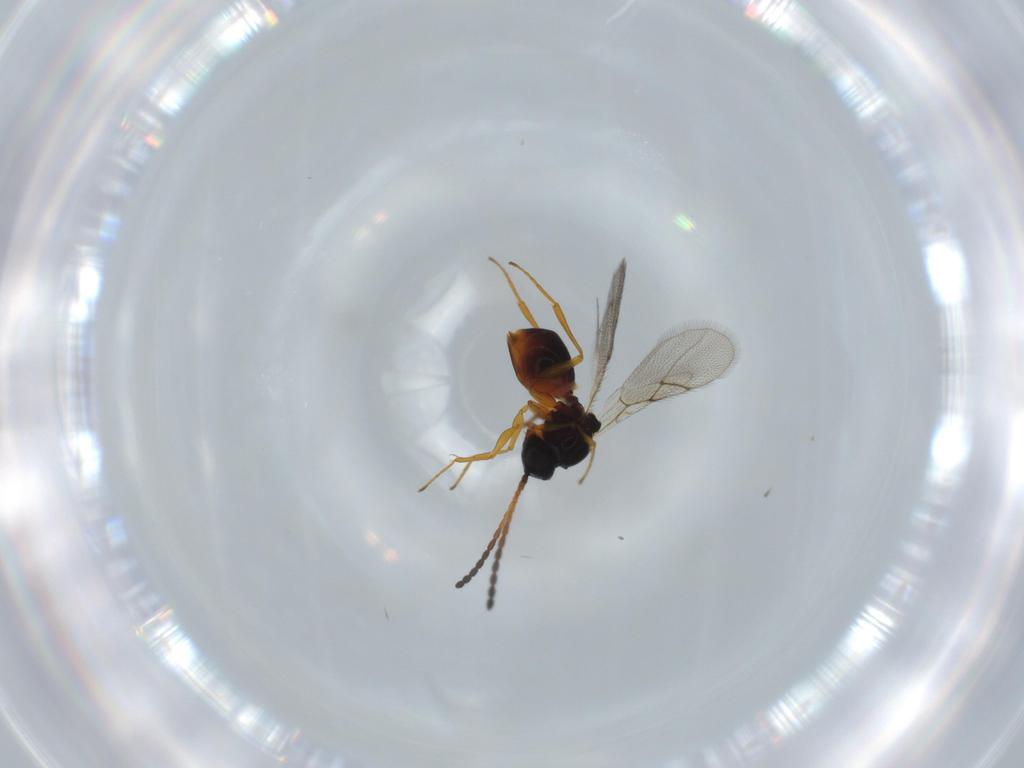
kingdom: Animalia
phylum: Arthropoda
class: Insecta
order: Hymenoptera
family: Figitidae
